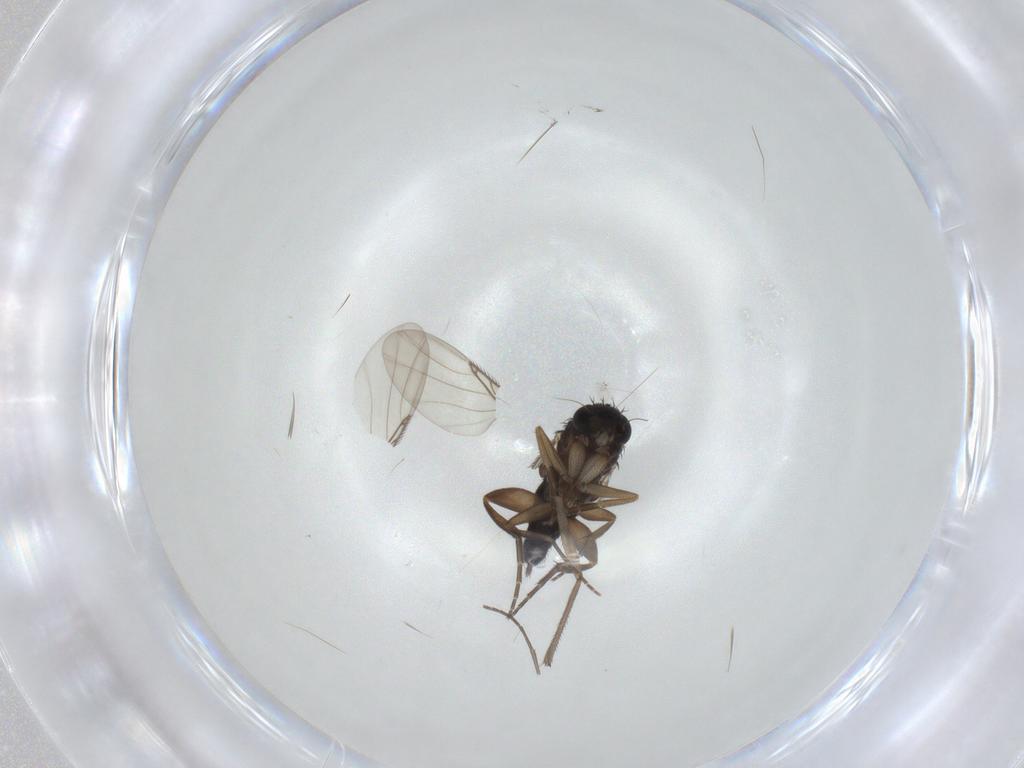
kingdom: Animalia
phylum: Arthropoda
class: Insecta
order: Diptera
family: Phoridae
